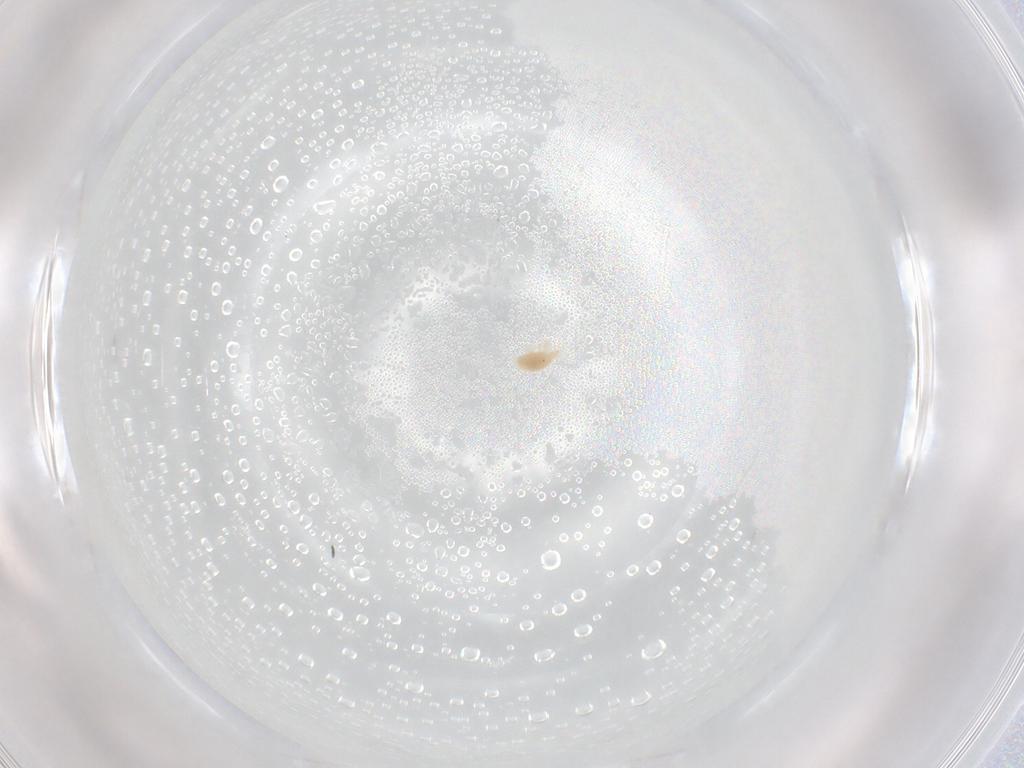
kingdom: Animalia
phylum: Arthropoda
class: Arachnida
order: Trombidiformes
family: Bdellidae
